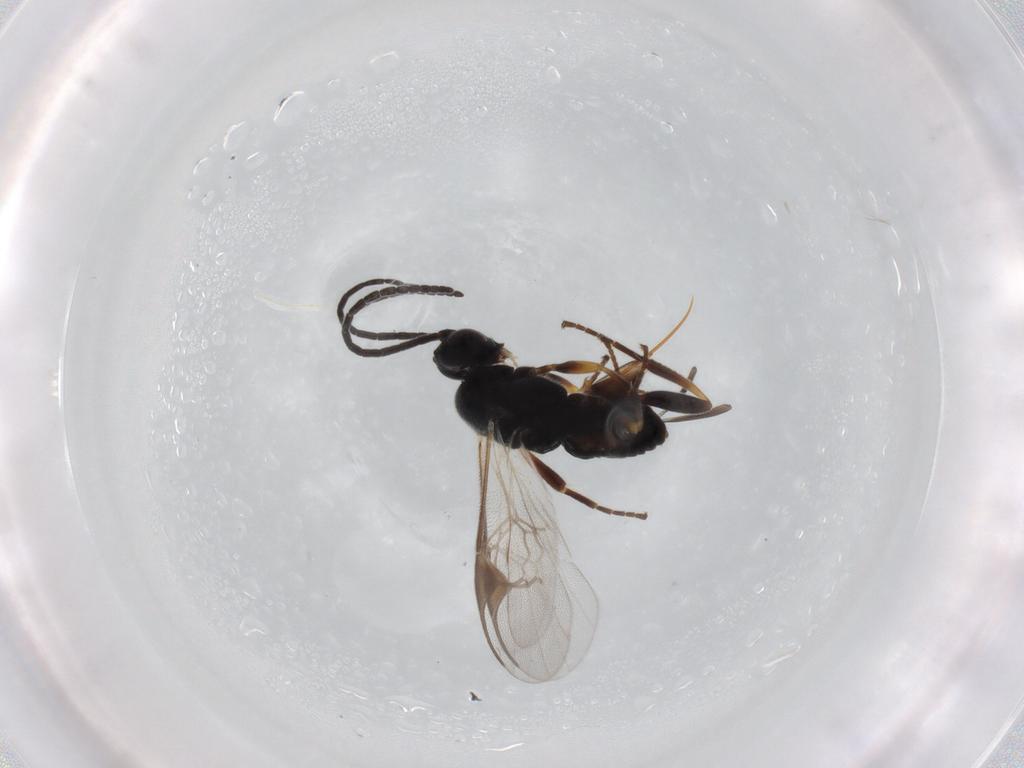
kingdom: Animalia
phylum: Arthropoda
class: Insecta
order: Hymenoptera
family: Braconidae
